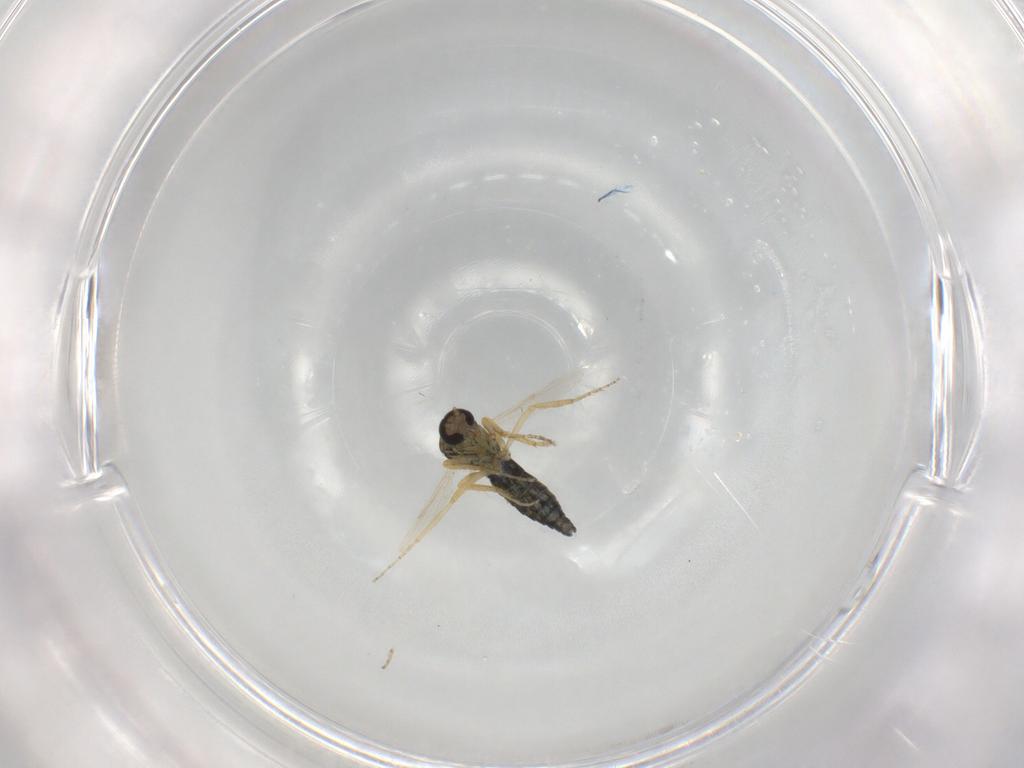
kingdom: Animalia
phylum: Arthropoda
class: Insecta
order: Diptera
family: Ceratopogonidae
